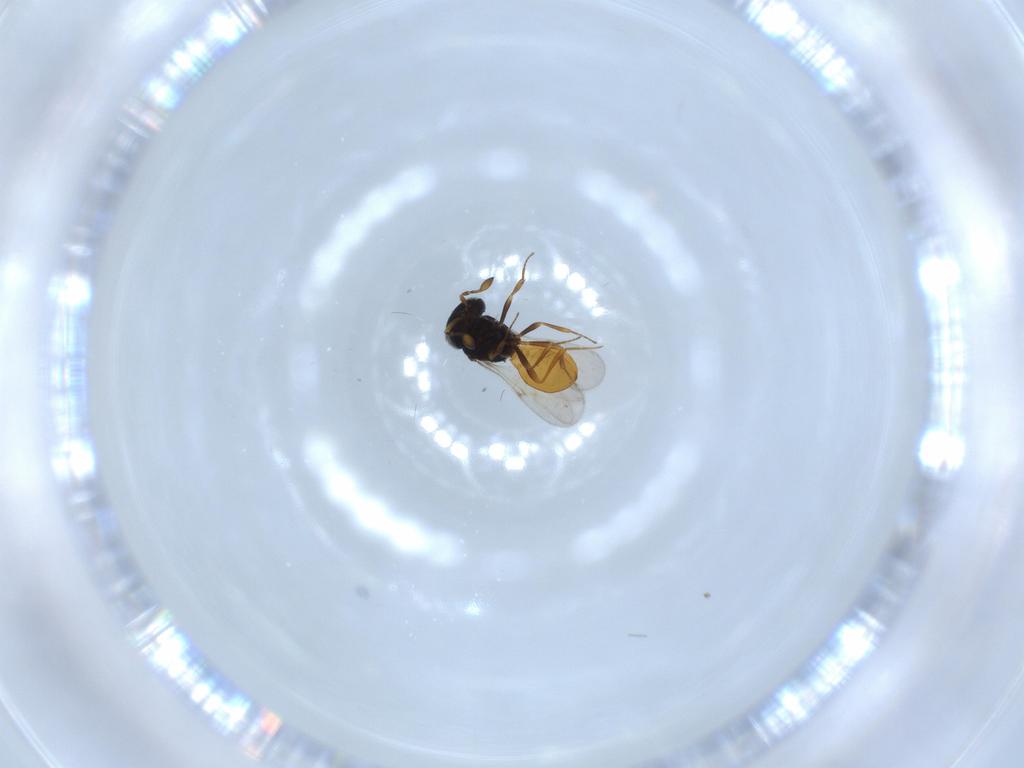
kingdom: Animalia
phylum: Arthropoda
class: Insecta
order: Hymenoptera
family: Scelionidae
